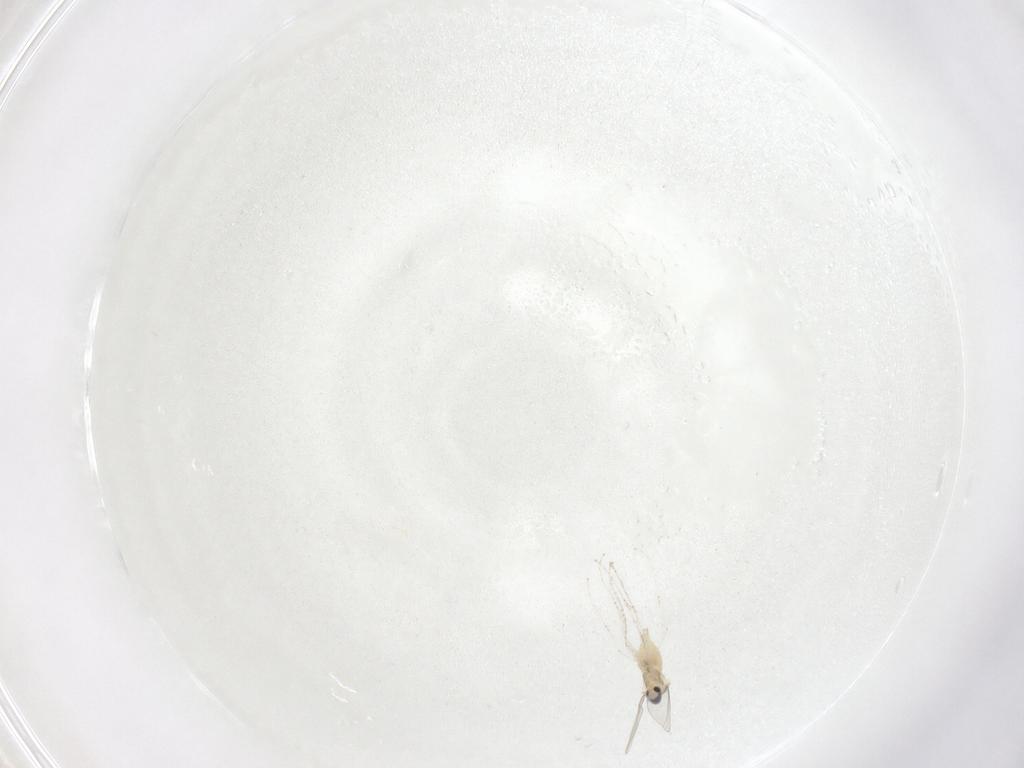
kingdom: Animalia
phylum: Arthropoda
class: Insecta
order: Diptera
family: Cecidomyiidae
